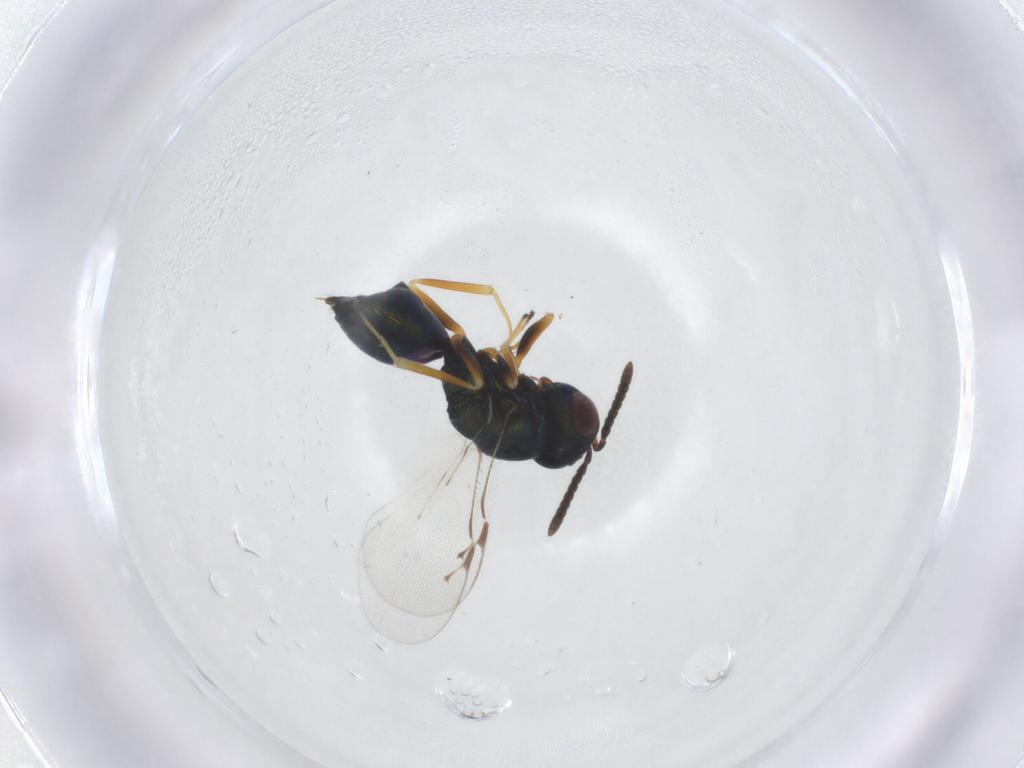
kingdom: Animalia
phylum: Arthropoda
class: Insecta
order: Hymenoptera
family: Pteromalidae
